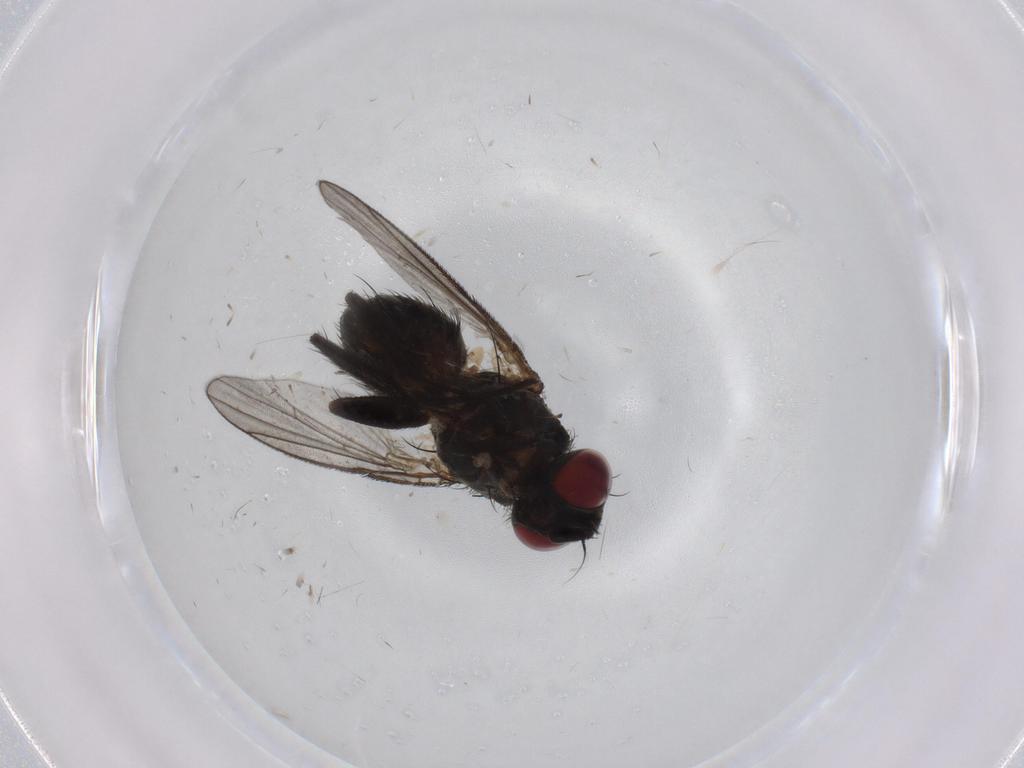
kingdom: Animalia
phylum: Arthropoda
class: Insecta
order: Diptera
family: Muscidae
